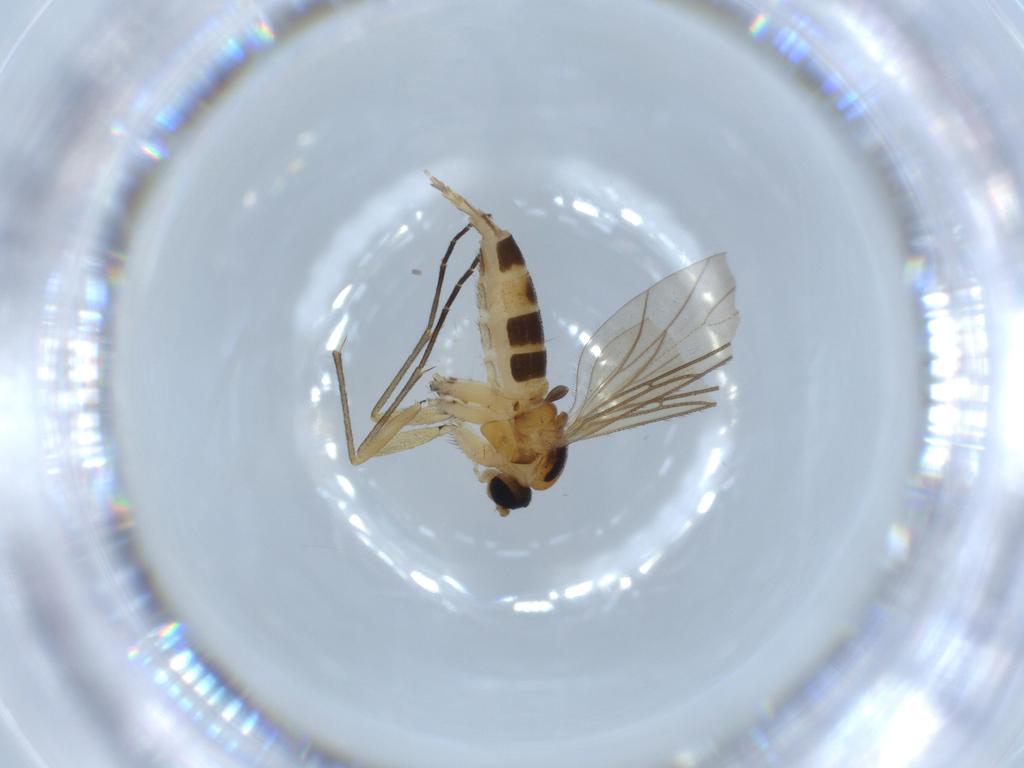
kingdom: Animalia
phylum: Arthropoda
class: Insecta
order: Diptera
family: Sciaridae
